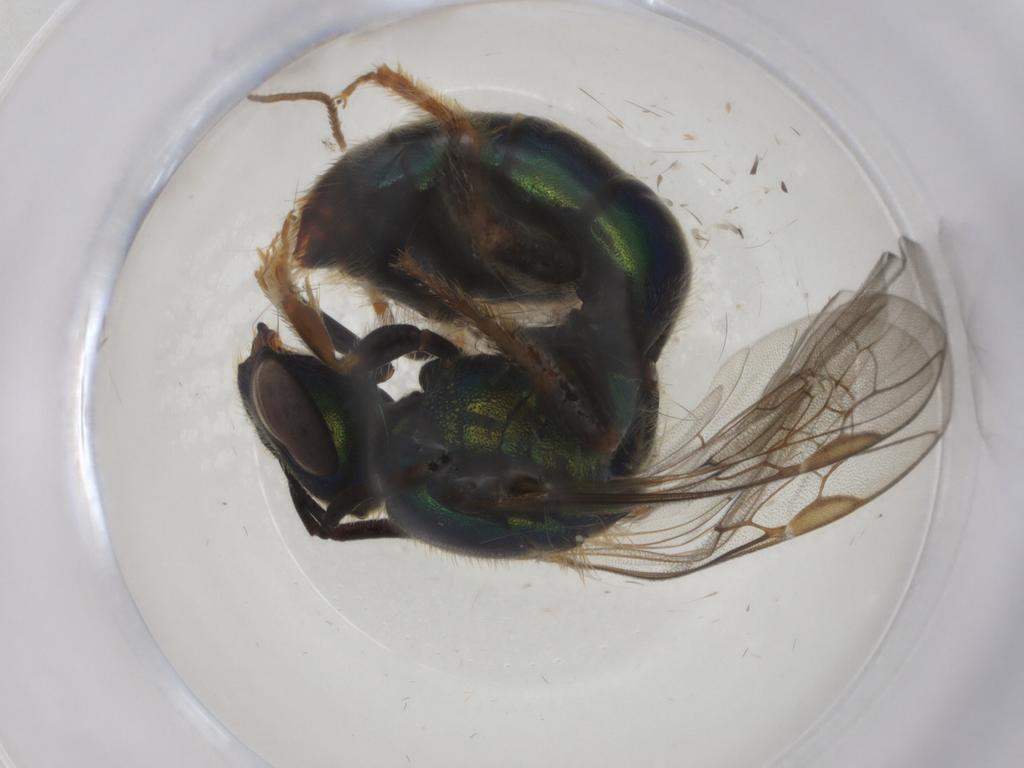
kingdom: Animalia
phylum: Arthropoda
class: Insecta
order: Hymenoptera
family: Halictidae
